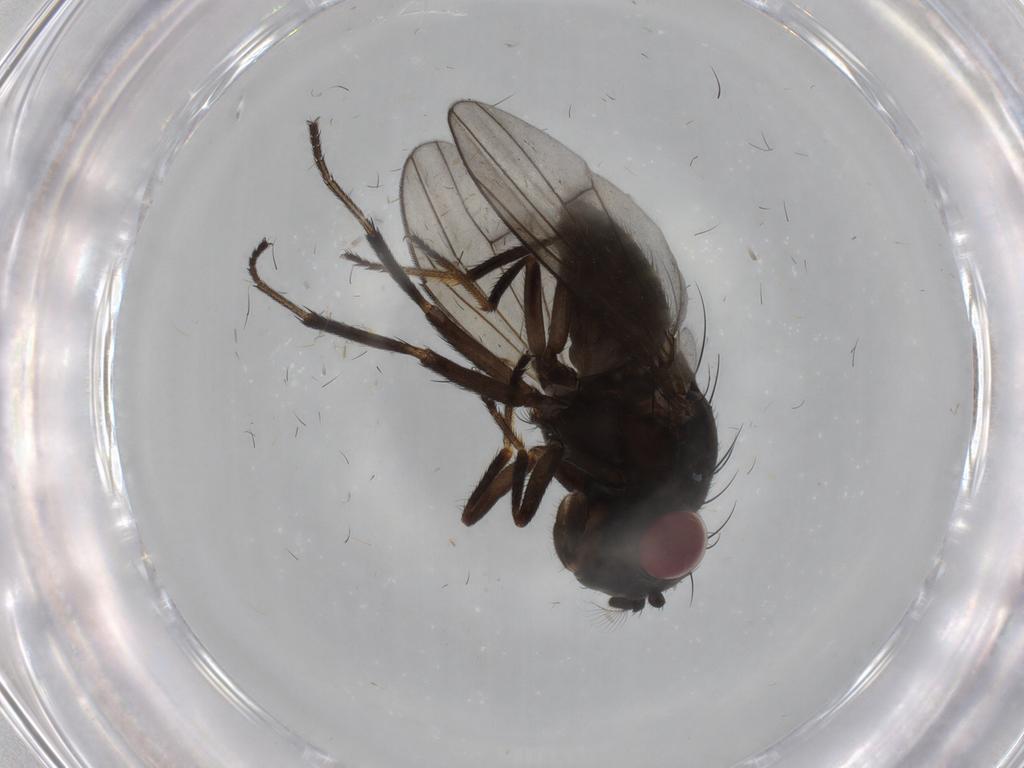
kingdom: Animalia
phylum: Arthropoda
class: Insecta
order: Diptera
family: Ephydridae
